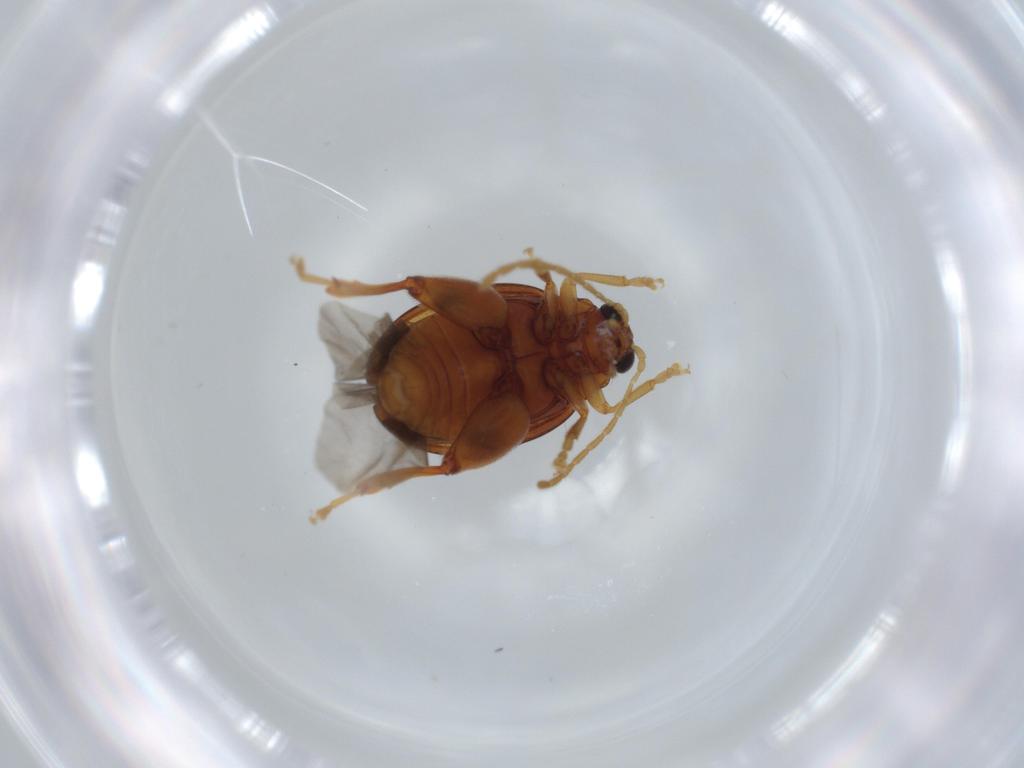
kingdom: Animalia
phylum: Arthropoda
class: Insecta
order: Coleoptera
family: Chrysomelidae
